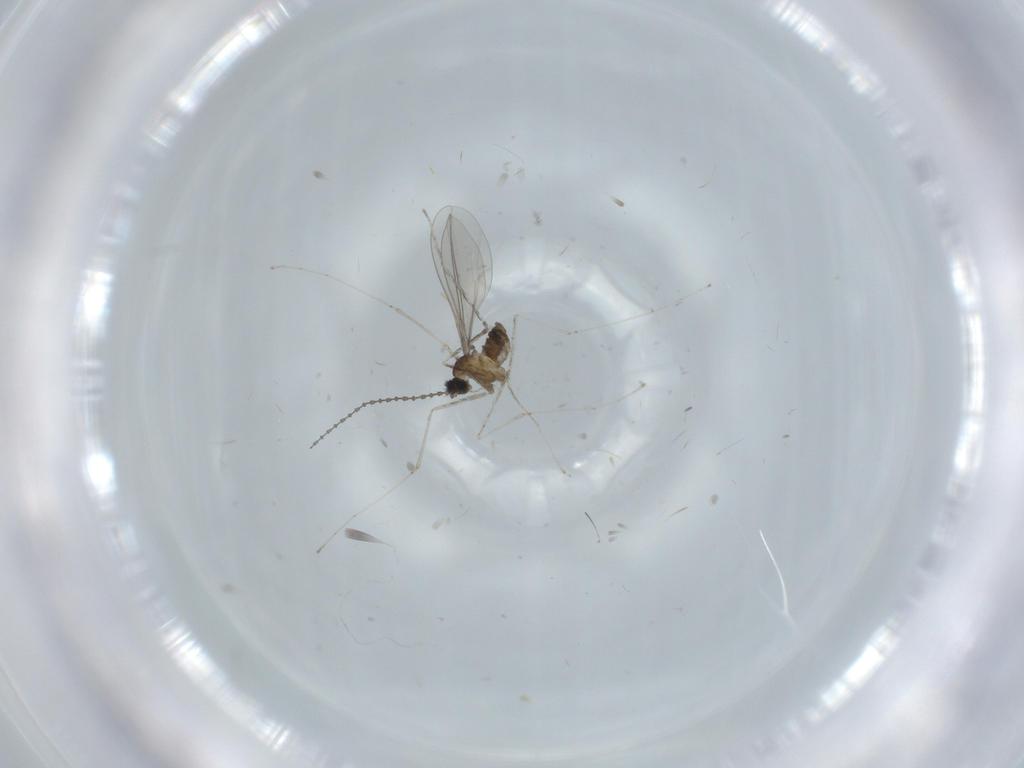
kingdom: Animalia
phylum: Arthropoda
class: Insecta
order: Diptera
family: Cecidomyiidae
